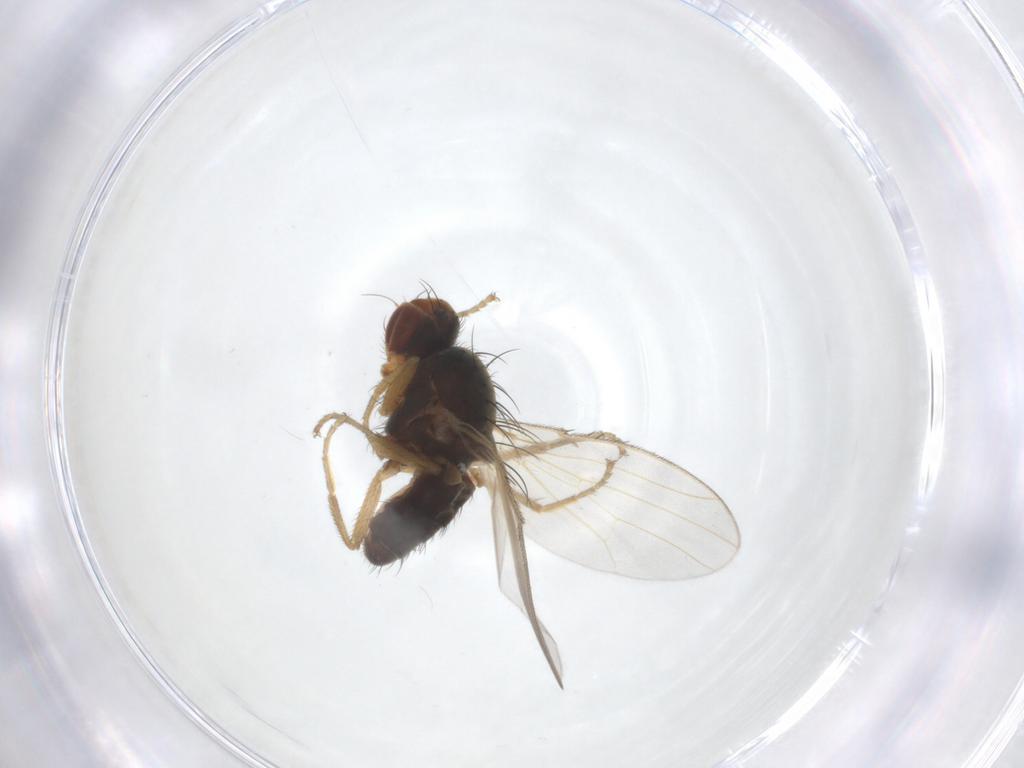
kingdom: Animalia
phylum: Arthropoda
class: Insecta
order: Diptera
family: Heleomyzidae
